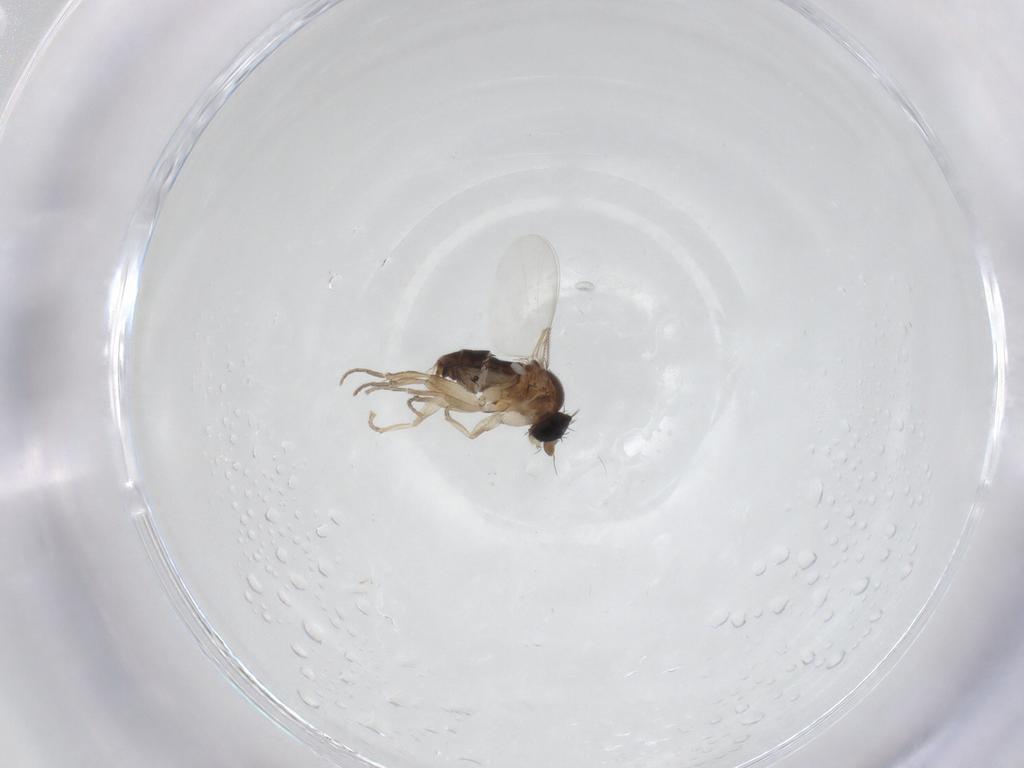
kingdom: Animalia
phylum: Arthropoda
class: Insecta
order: Diptera
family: Phoridae
